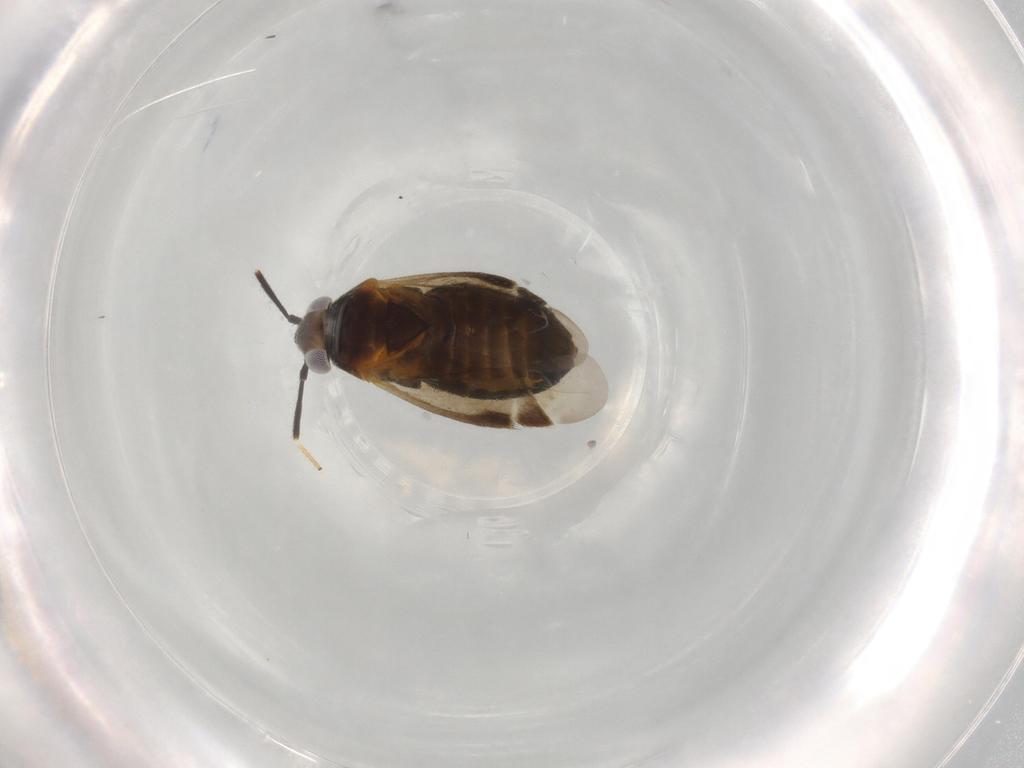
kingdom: Animalia
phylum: Arthropoda
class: Insecta
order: Hemiptera
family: Miridae
